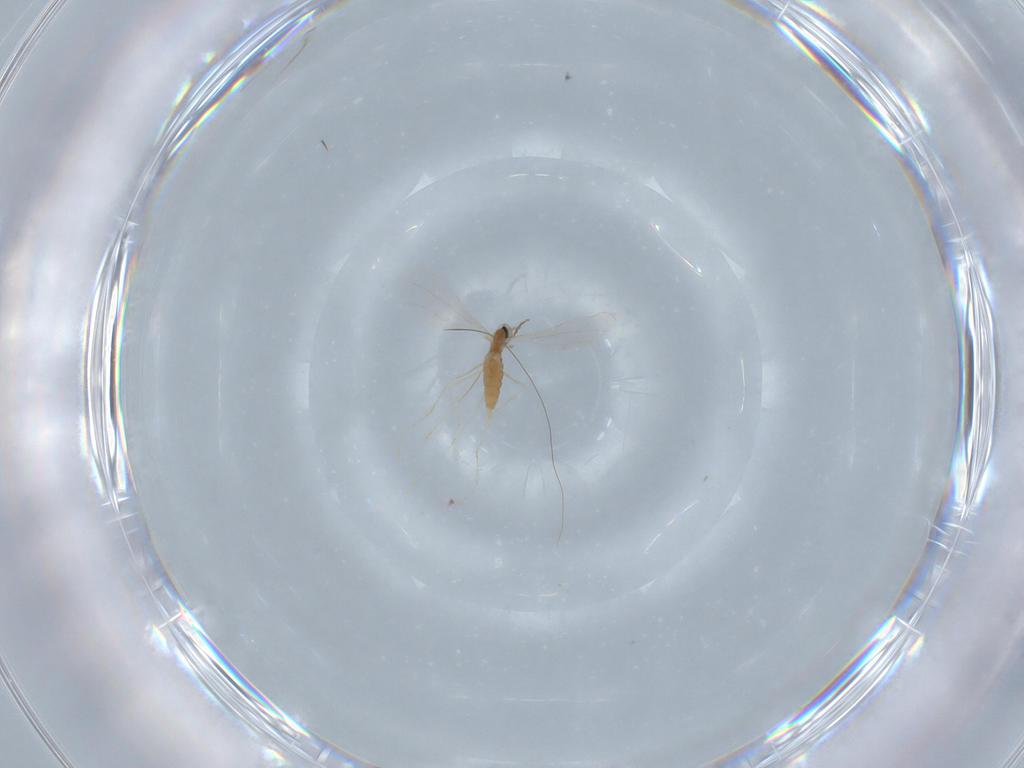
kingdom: Animalia
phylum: Arthropoda
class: Insecta
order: Diptera
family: Cecidomyiidae
